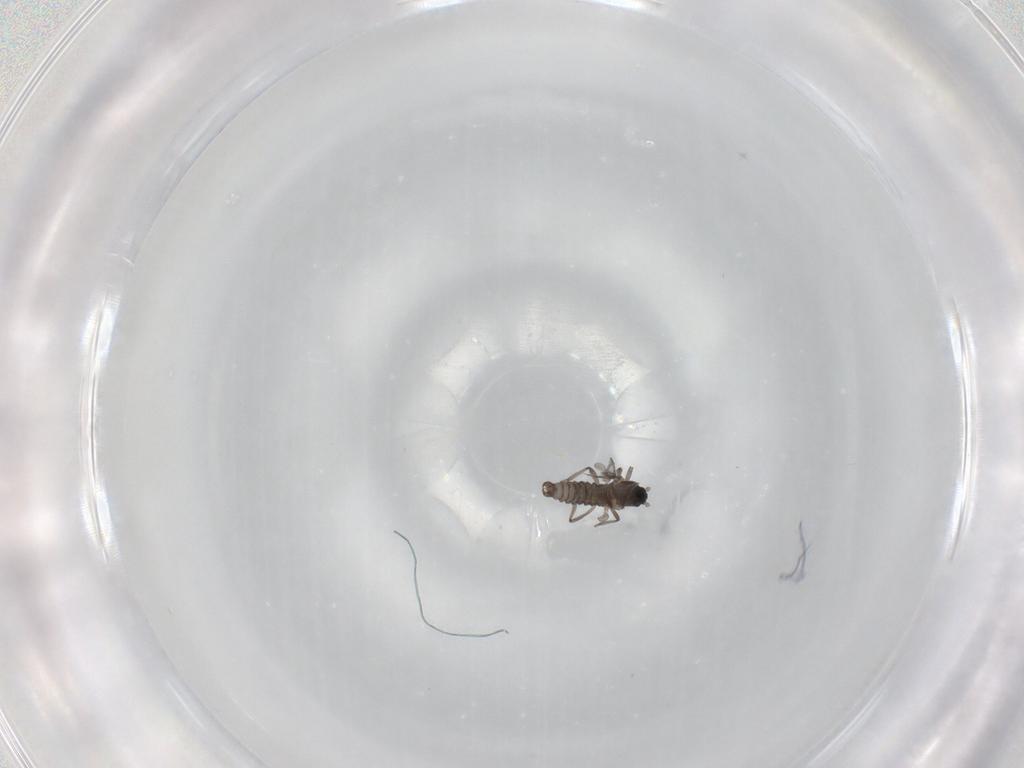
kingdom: Animalia
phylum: Arthropoda
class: Insecta
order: Diptera
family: Cecidomyiidae
